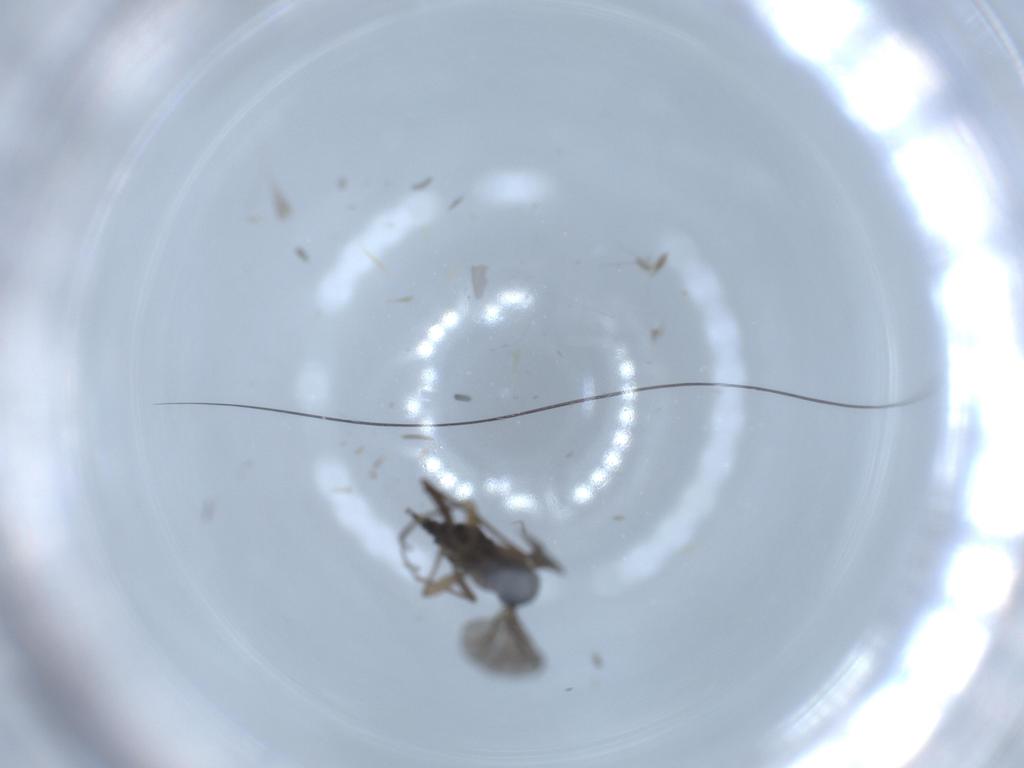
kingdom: Animalia
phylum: Arthropoda
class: Insecta
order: Diptera
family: Sciaridae
